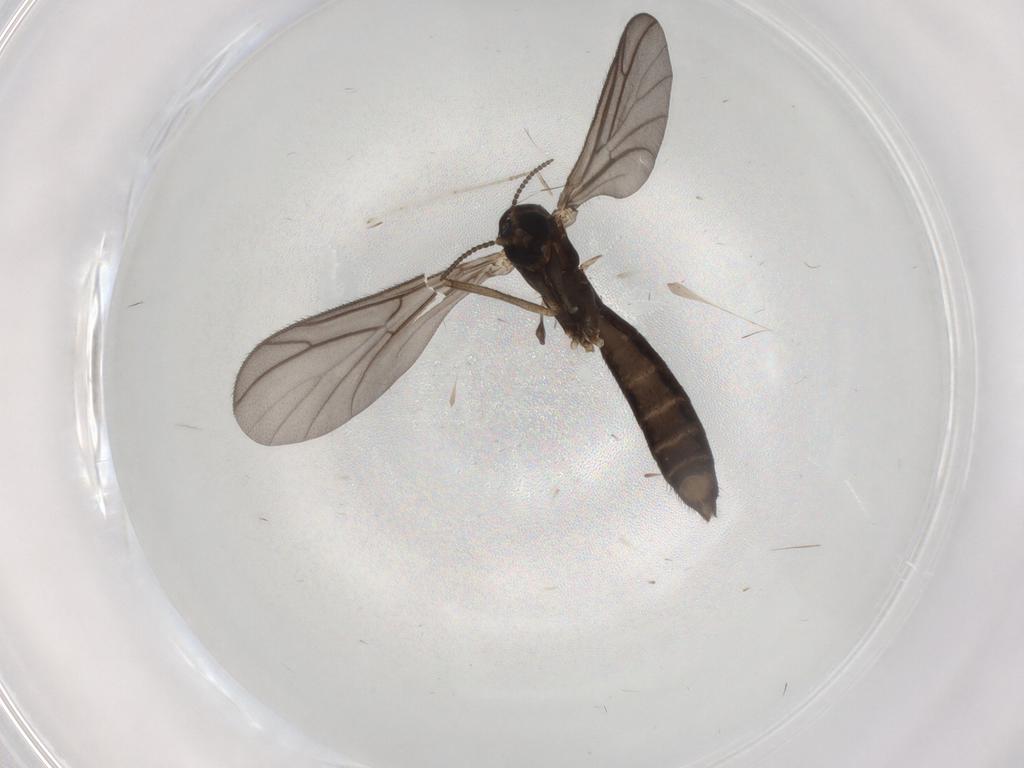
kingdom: Animalia
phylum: Arthropoda
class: Insecta
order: Diptera
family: Keroplatidae
